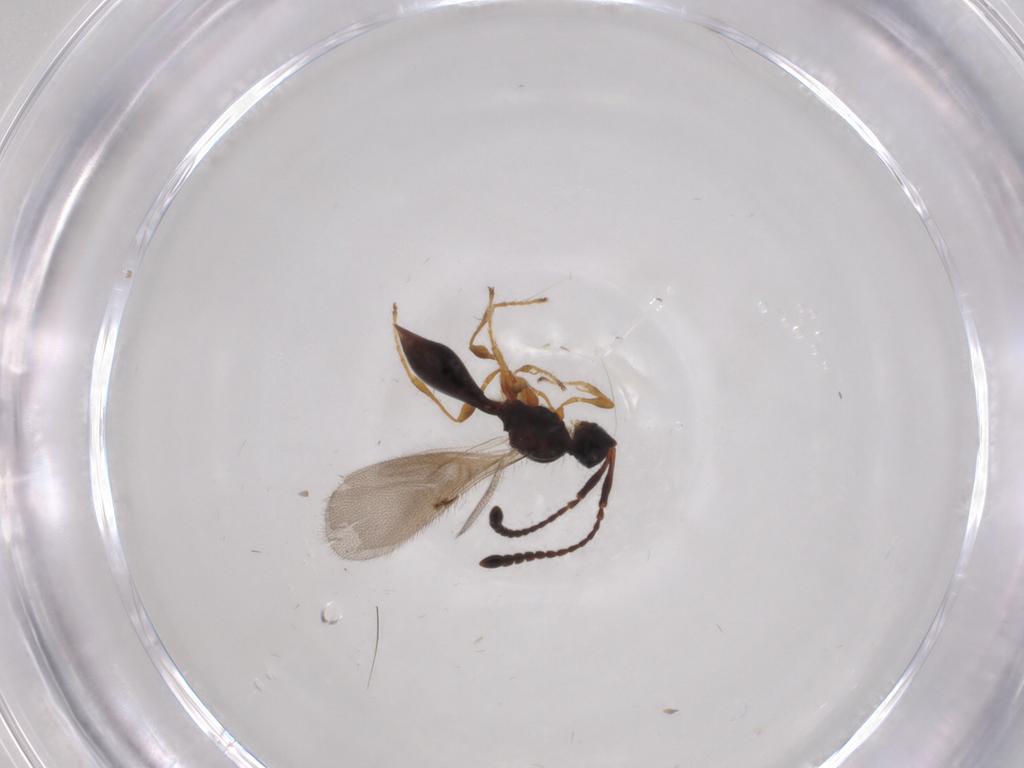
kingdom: Animalia
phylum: Arthropoda
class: Insecta
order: Hymenoptera
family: Diapriidae
